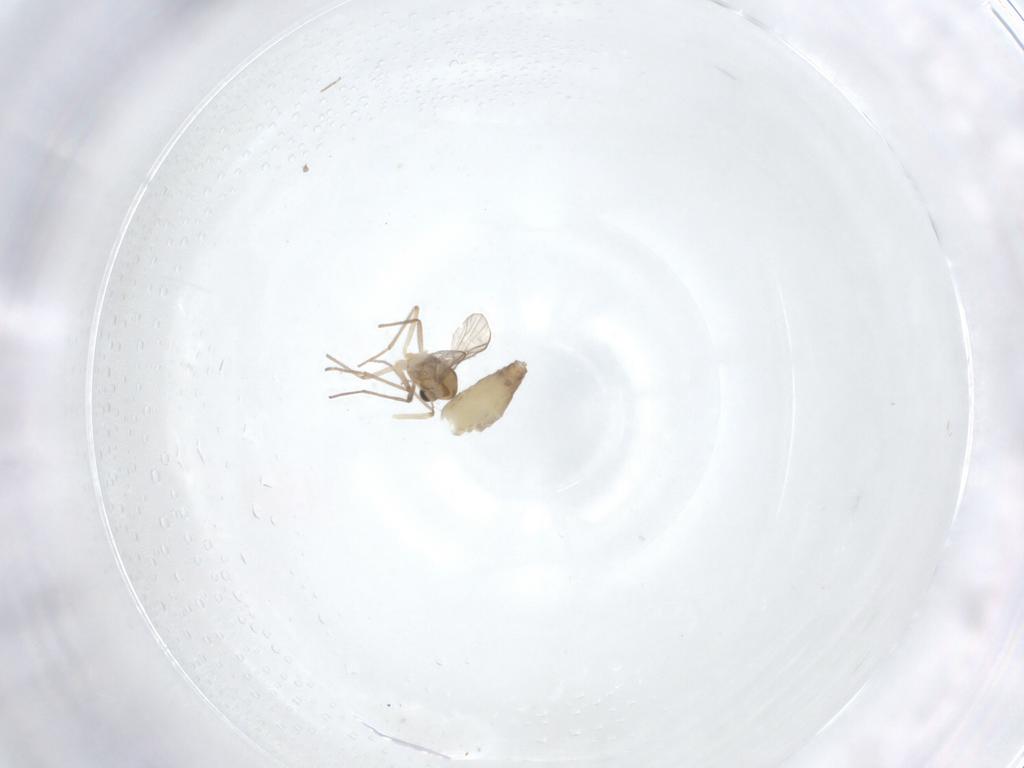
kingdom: Animalia
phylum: Arthropoda
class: Insecta
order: Diptera
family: Chironomidae
